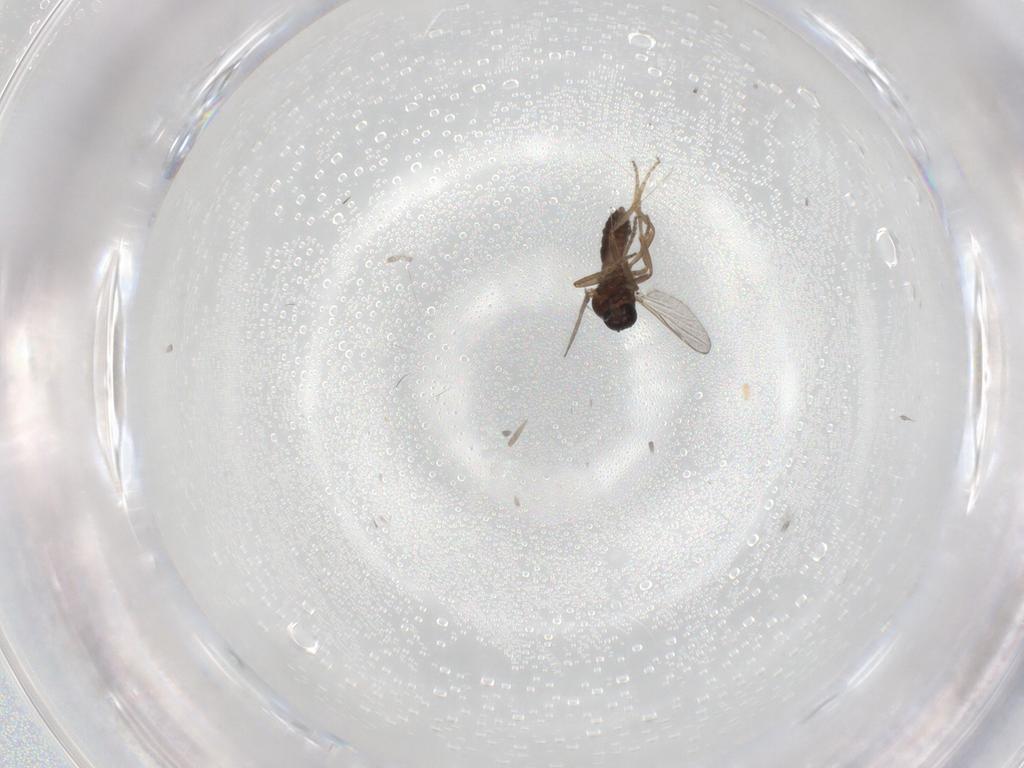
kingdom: Animalia
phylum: Arthropoda
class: Insecta
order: Diptera
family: Ceratopogonidae
